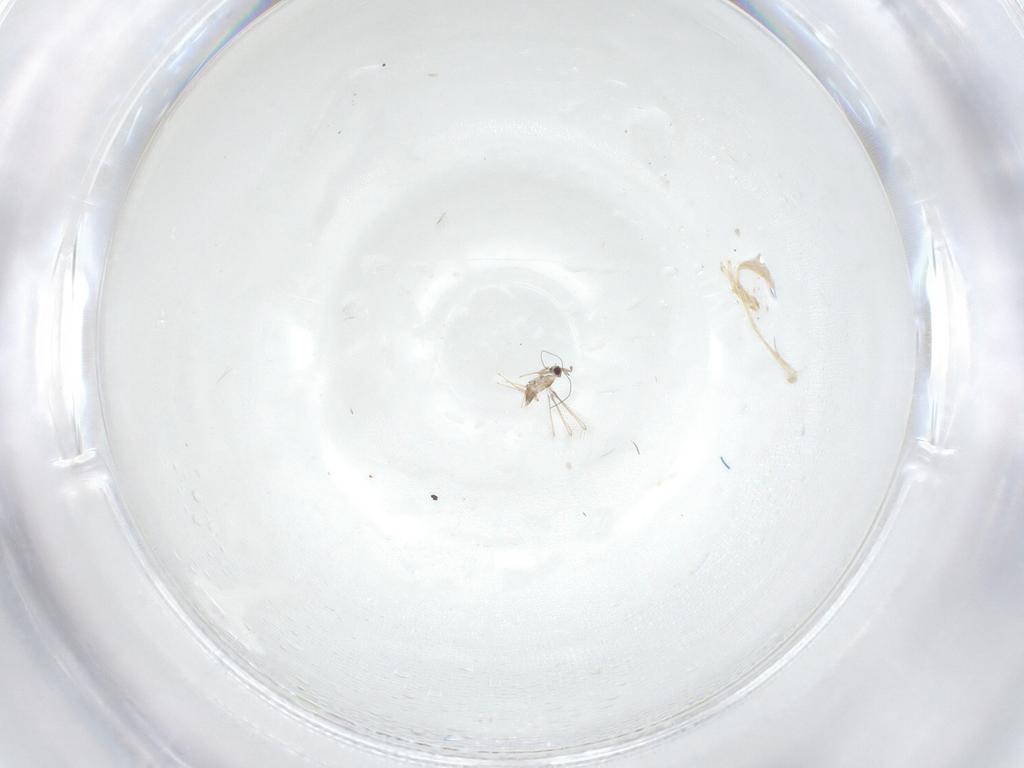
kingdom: Animalia
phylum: Arthropoda
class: Insecta
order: Hymenoptera
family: Mymaridae
